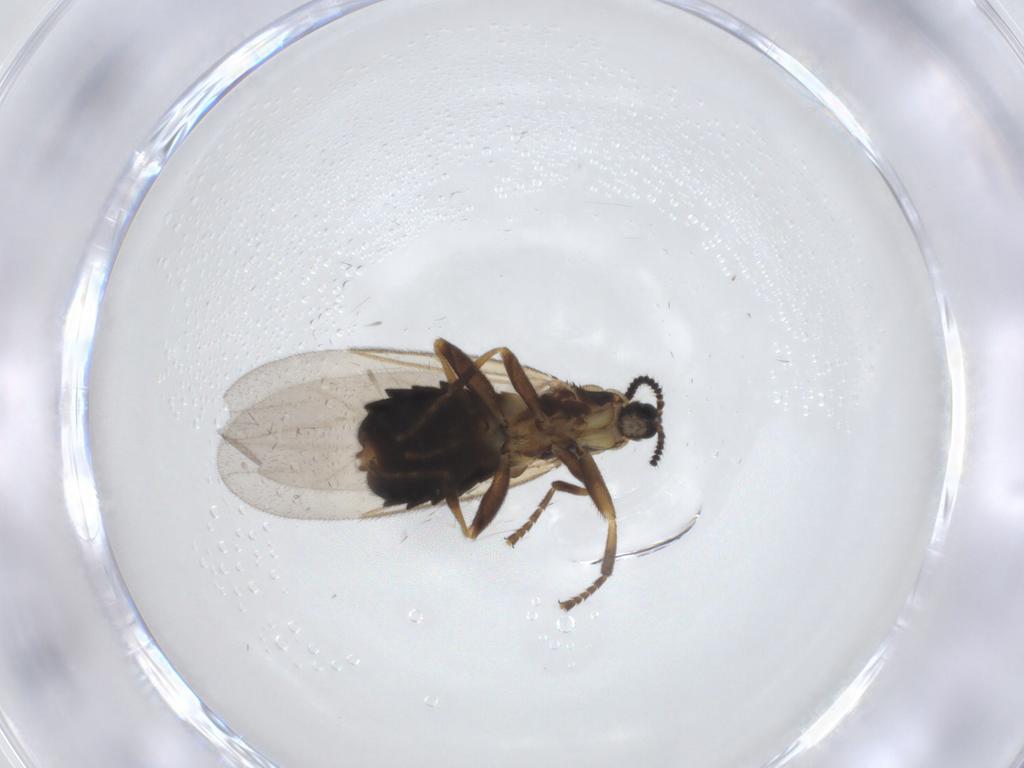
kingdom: Animalia
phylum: Arthropoda
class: Insecta
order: Diptera
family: Scatopsidae
